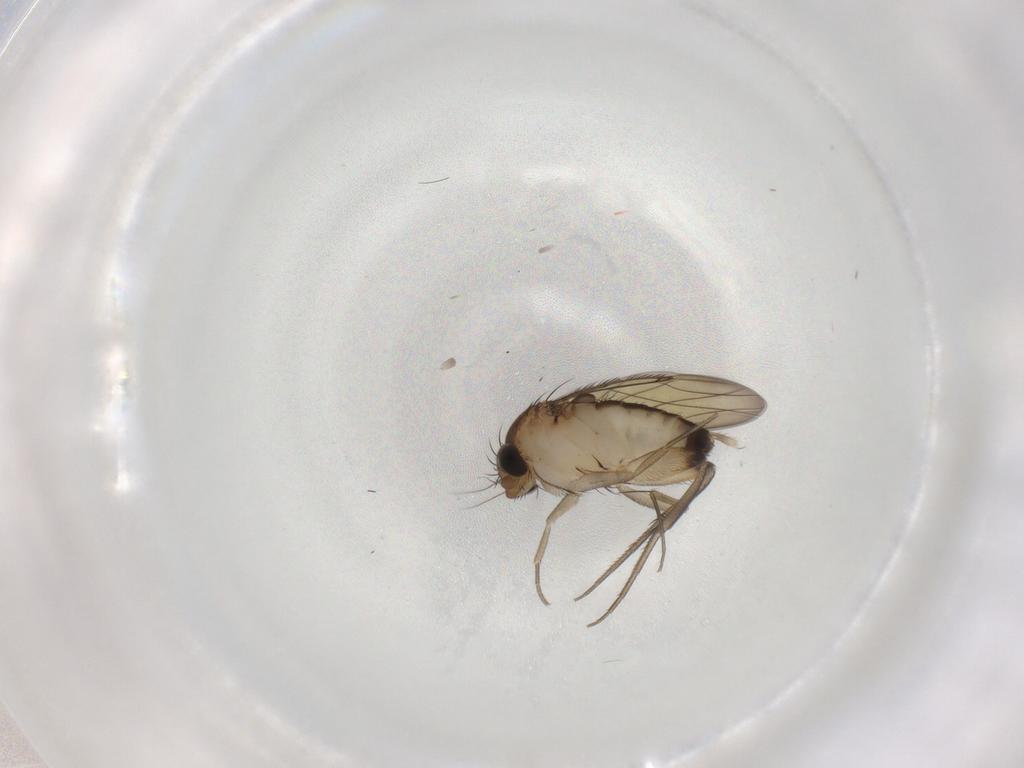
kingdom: Animalia
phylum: Arthropoda
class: Insecta
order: Diptera
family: Phoridae
